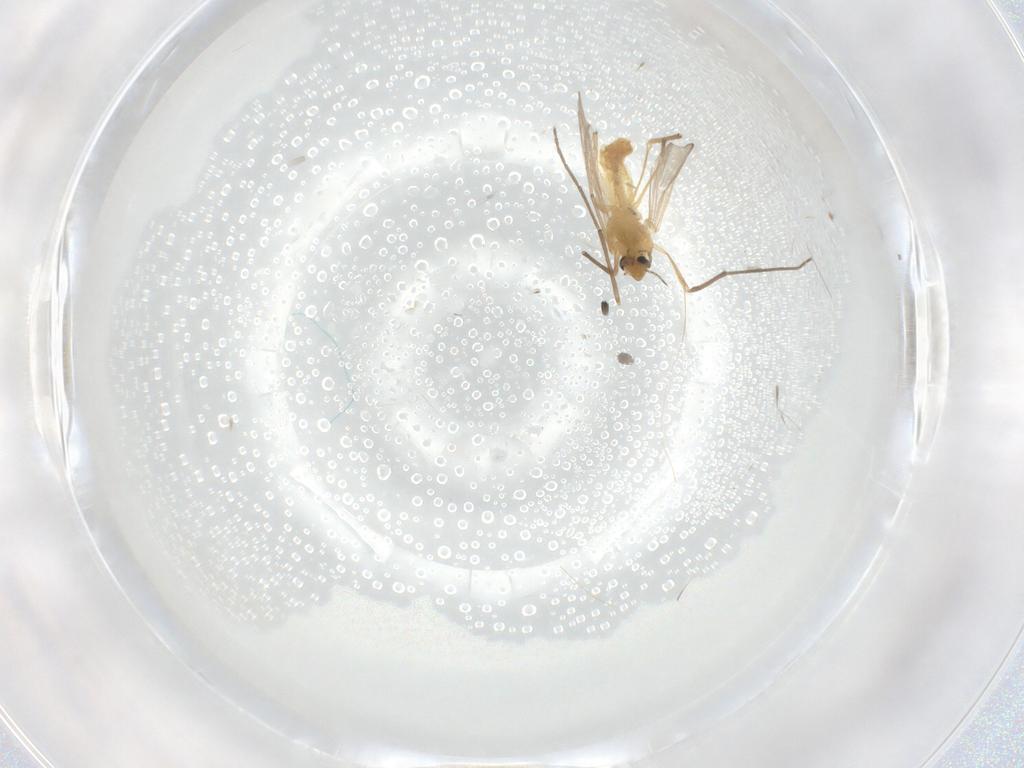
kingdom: Animalia
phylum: Arthropoda
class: Insecta
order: Diptera
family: Chironomidae
